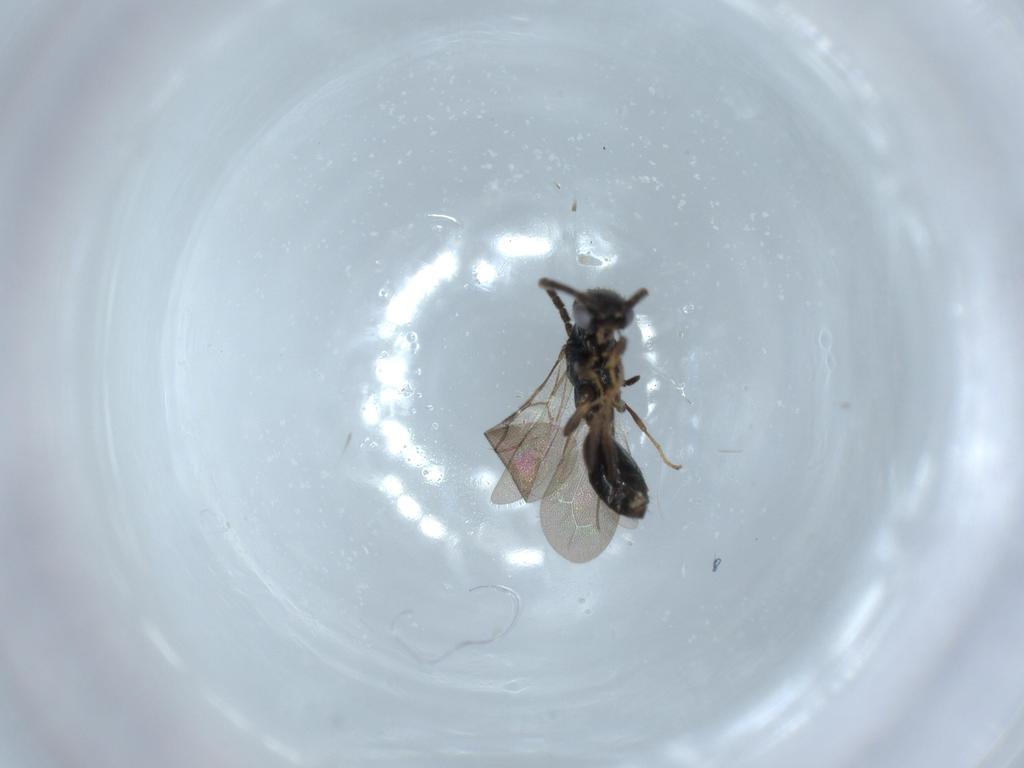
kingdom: Animalia
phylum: Arthropoda
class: Insecta
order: Hymenoptera
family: Bethylidae
